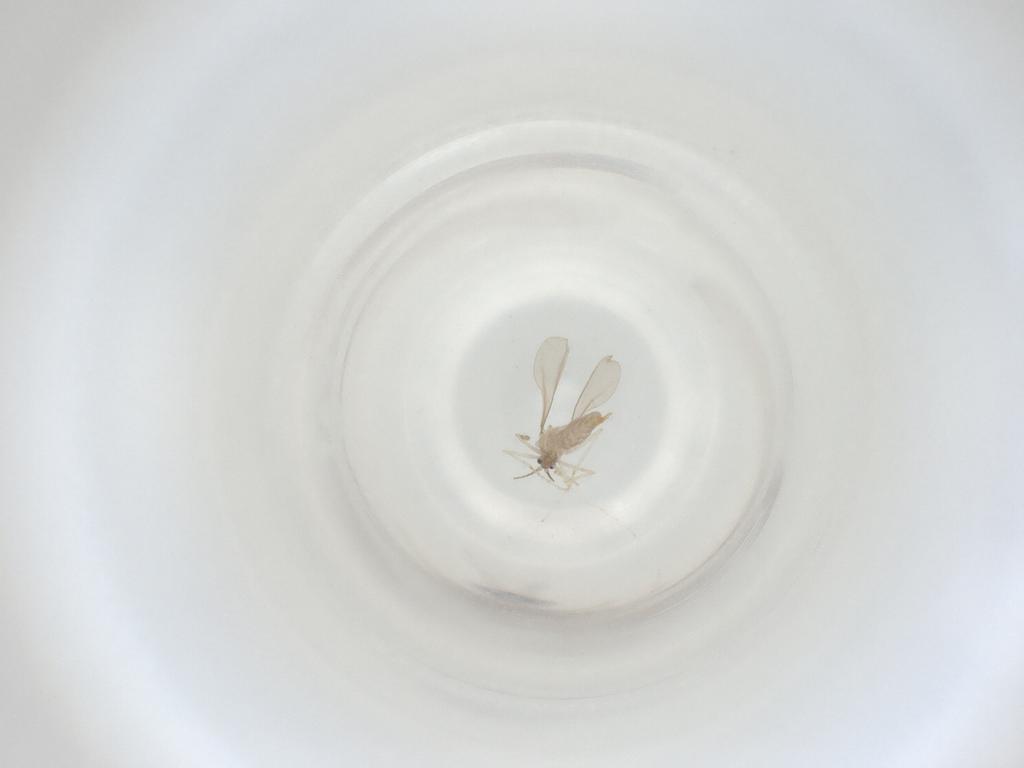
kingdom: Animalia
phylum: Arthropoda
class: Insecta
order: Diptera
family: Cecidomyiidae
